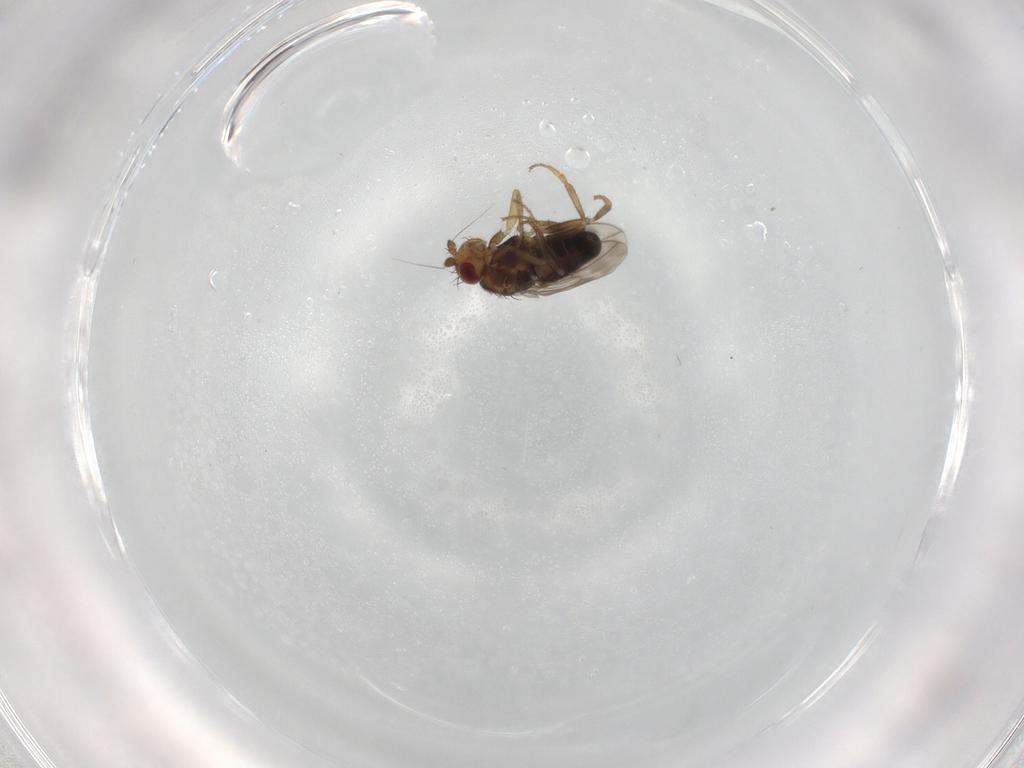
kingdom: Animalia
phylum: Arthropoda
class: Insecta
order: Diptera
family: Sphaeroceridae
